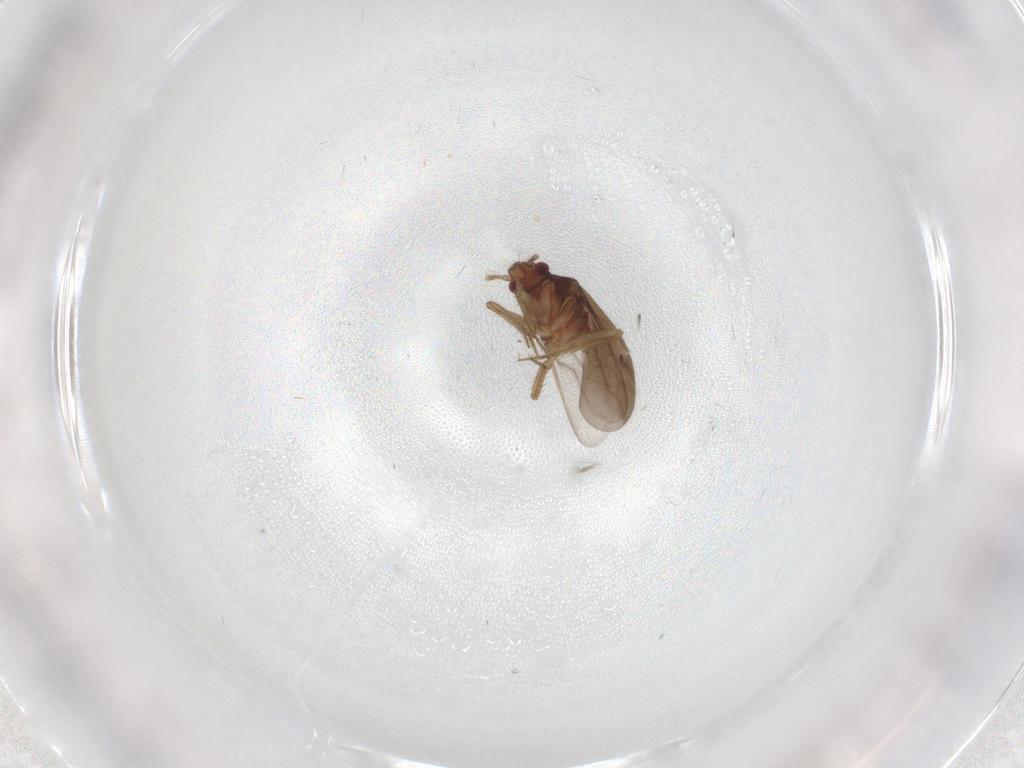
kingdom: Animalia
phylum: Arthropoda
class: Insecta
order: Hemiptera
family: Ceratocombidae
